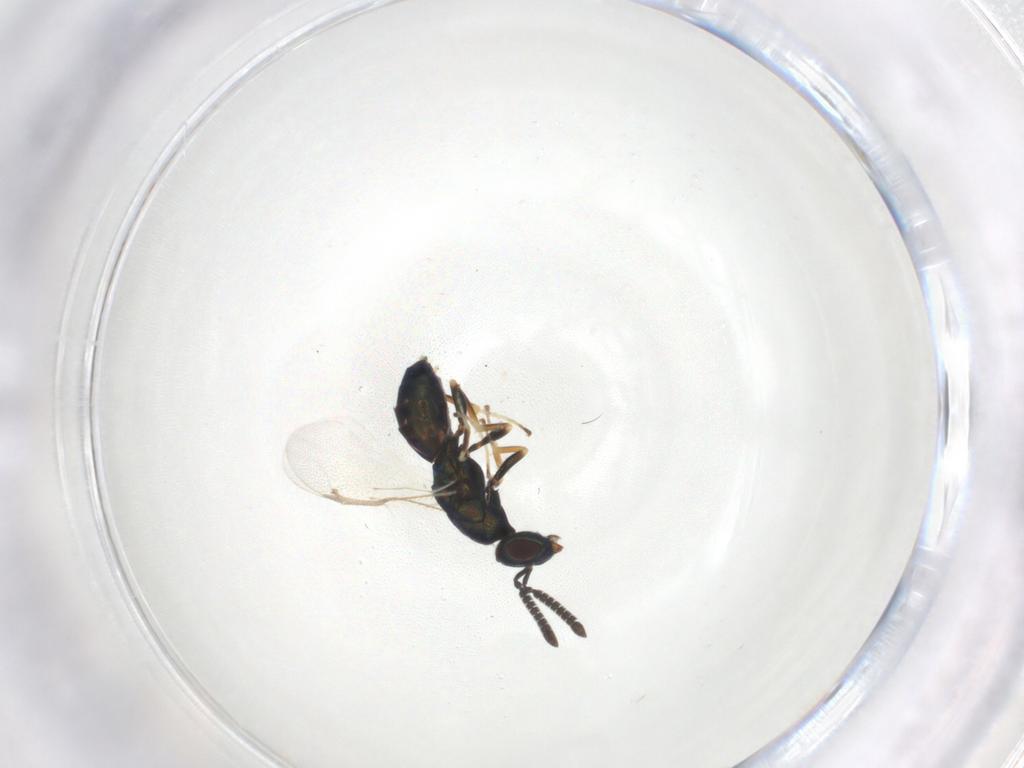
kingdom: Animalia
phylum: Arthropoda
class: Insecta
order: Hymenoptera
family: Torymidae
